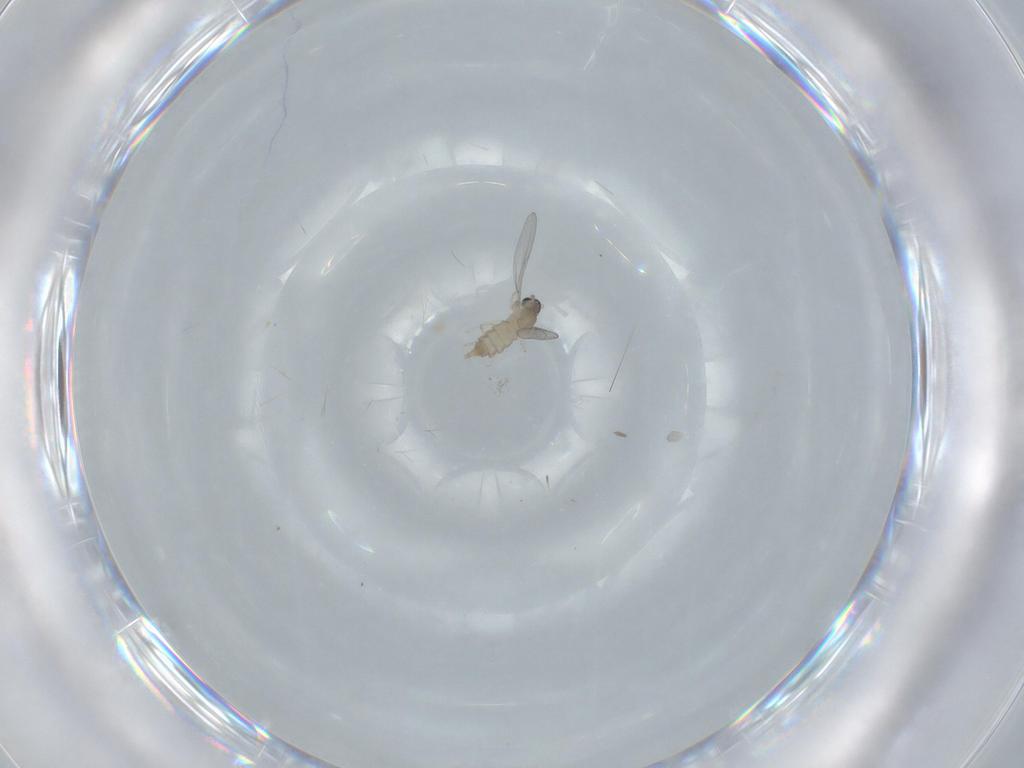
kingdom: Animalia
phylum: Arthropoda
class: Insecta
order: Diptera
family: Cecidomyiidae
